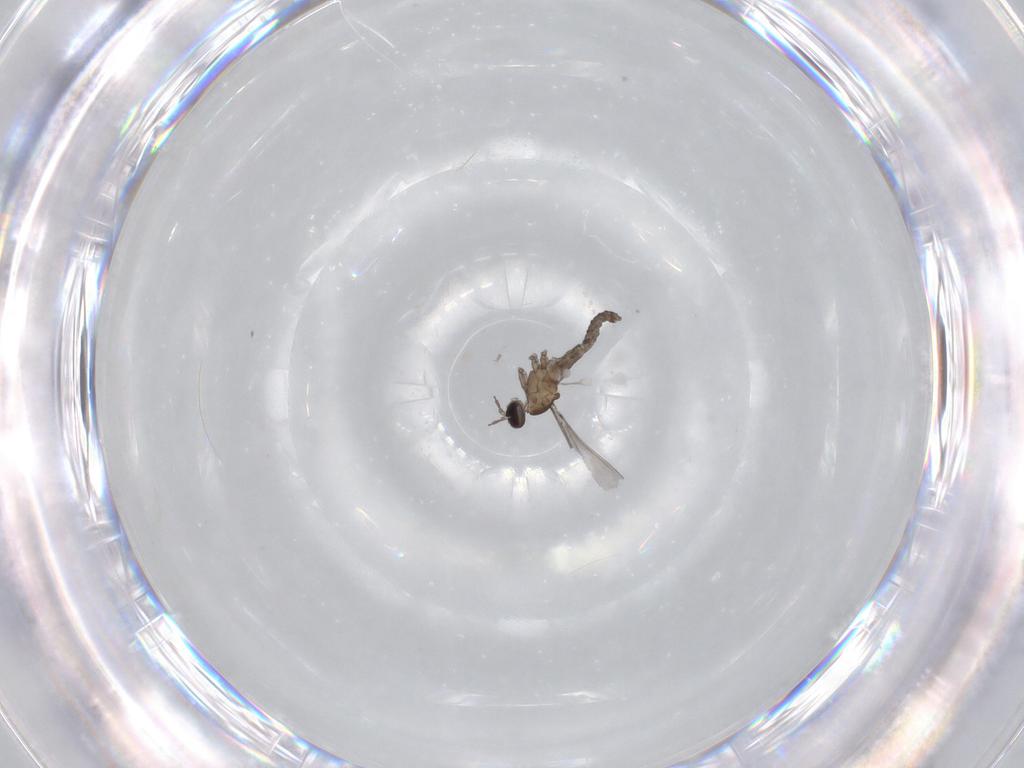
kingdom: Animalia
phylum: Arthropoda
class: Insecta
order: Diptera
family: Cecidomyiidae
